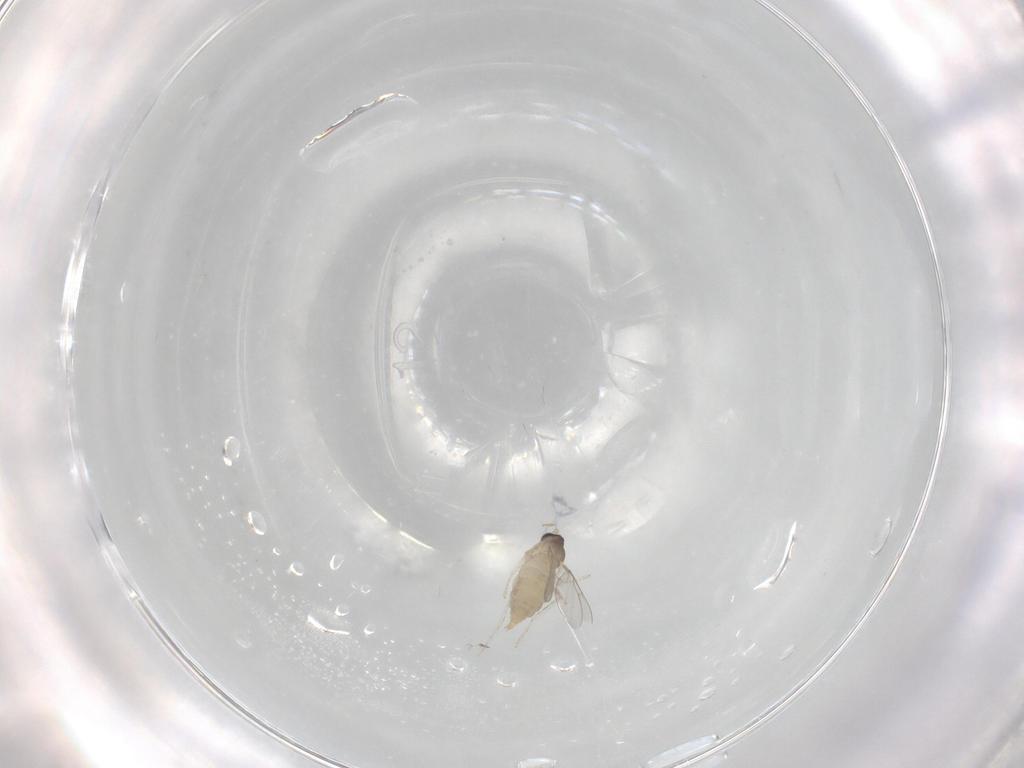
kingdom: Animalia
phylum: Arthropoda
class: Insecta
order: Diptera
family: Cecidomyiidae
